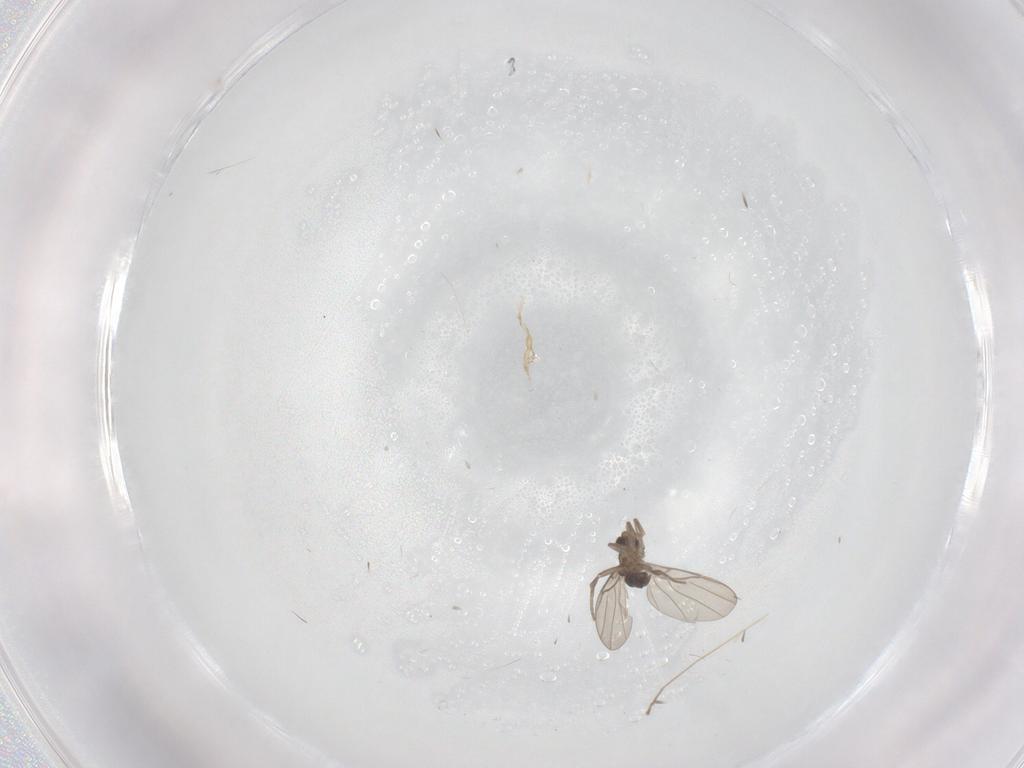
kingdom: Animalia
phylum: Arthropoda
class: Insecta
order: Diptera
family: Phoridae
